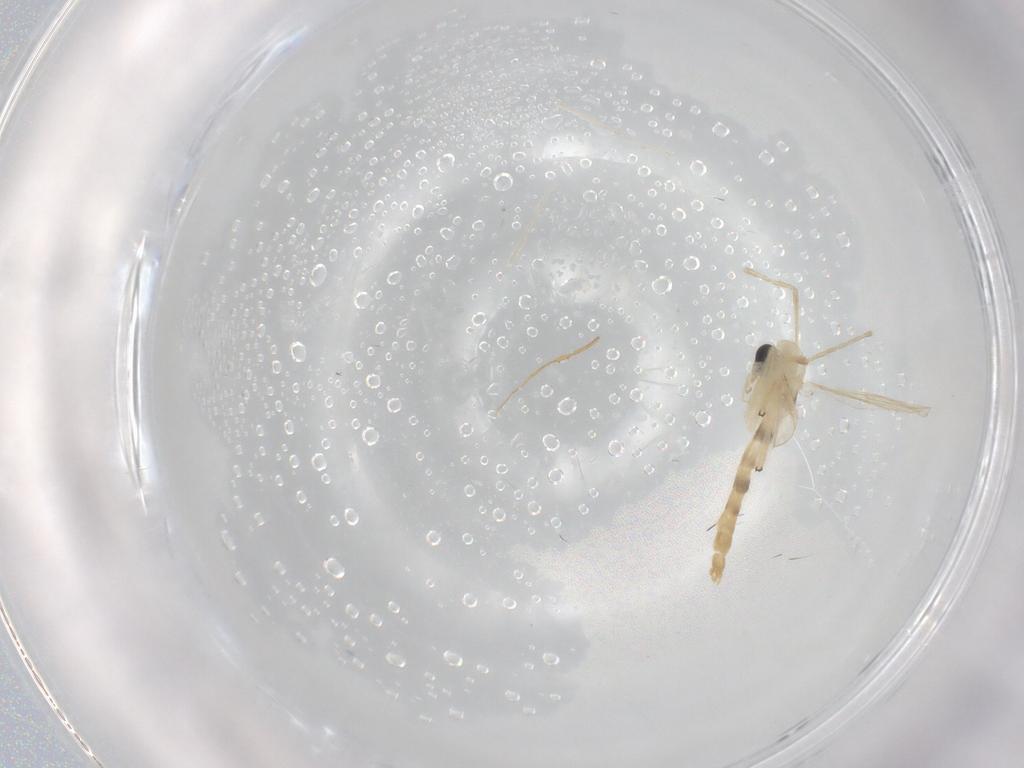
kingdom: Animalia
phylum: Arthropoda
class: Insecta
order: Diptera
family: Chironomidae
